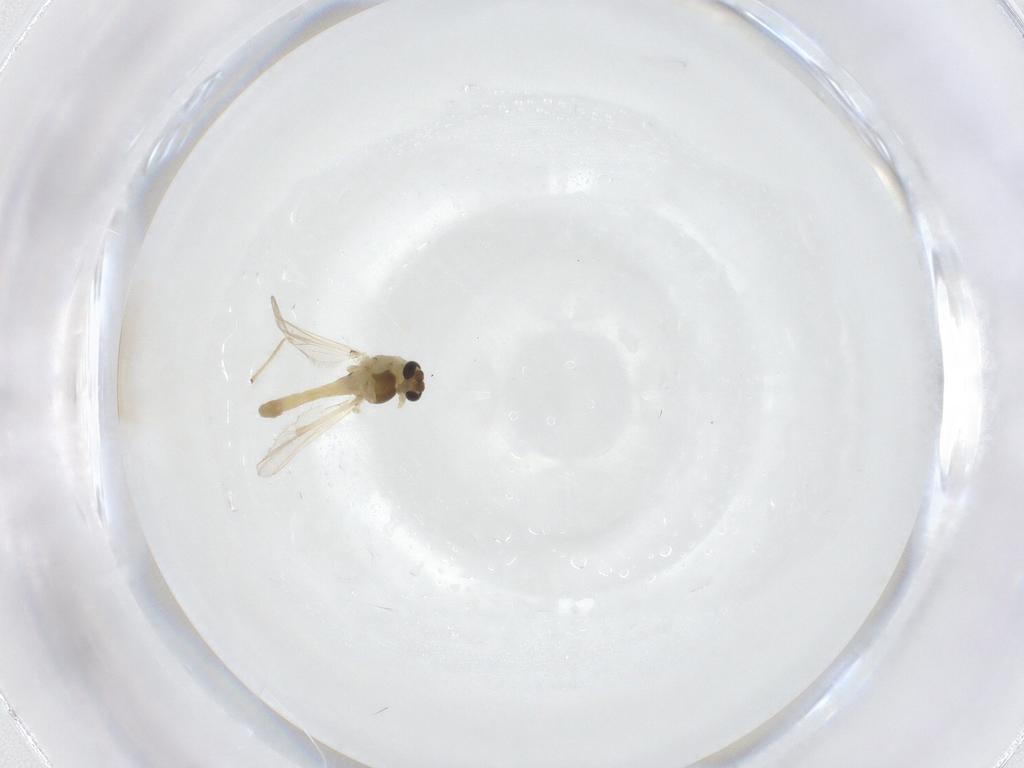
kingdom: Animalia
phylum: Arthropoda
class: Insecta
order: Diptera
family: Chironomidae
